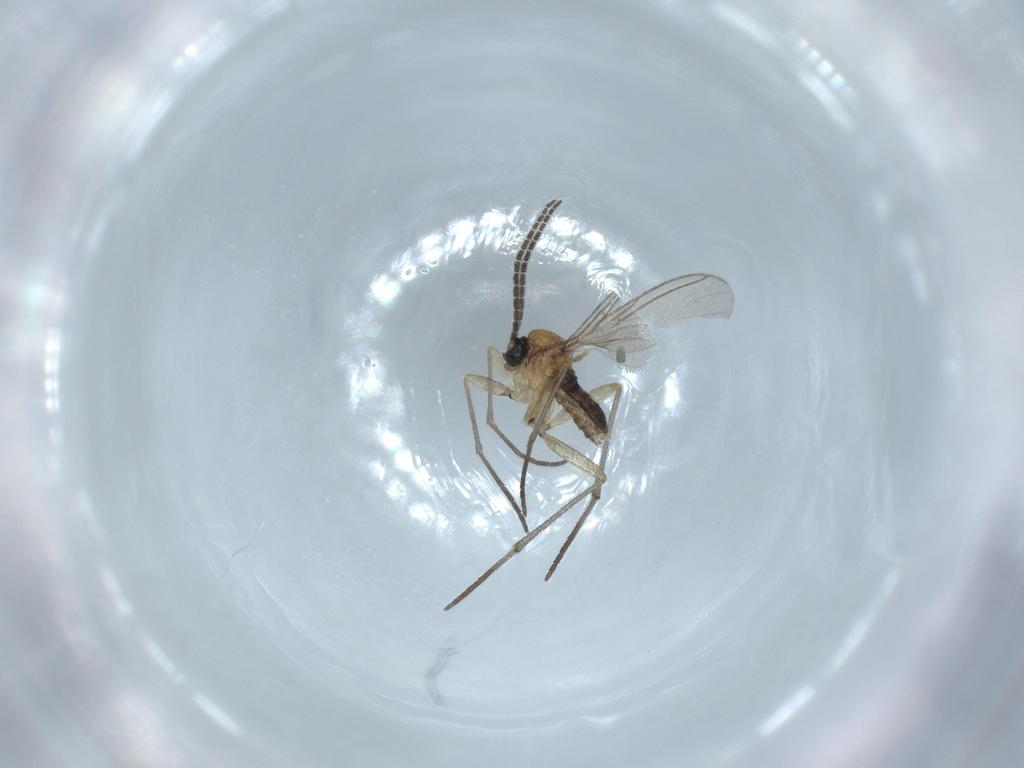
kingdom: Animalia
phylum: Arthropoda
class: Insecta
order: Diptera
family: Sciaridae
